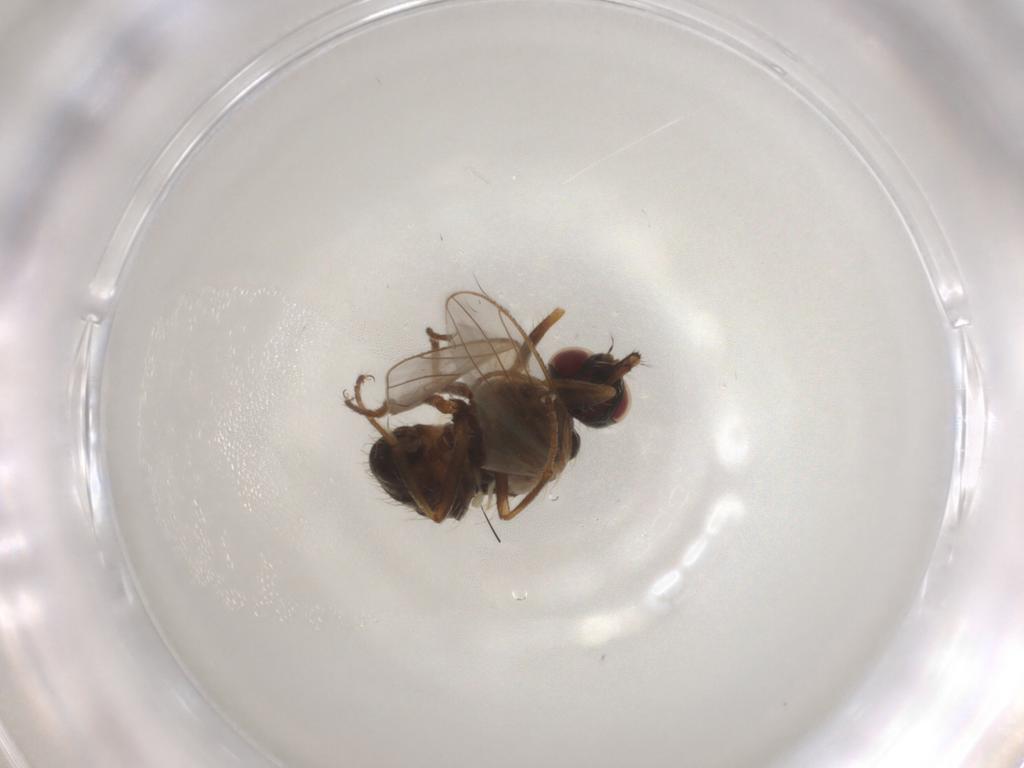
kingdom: Animalia
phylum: Arthropoda
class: Insecta
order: Diptera
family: Muscidae
